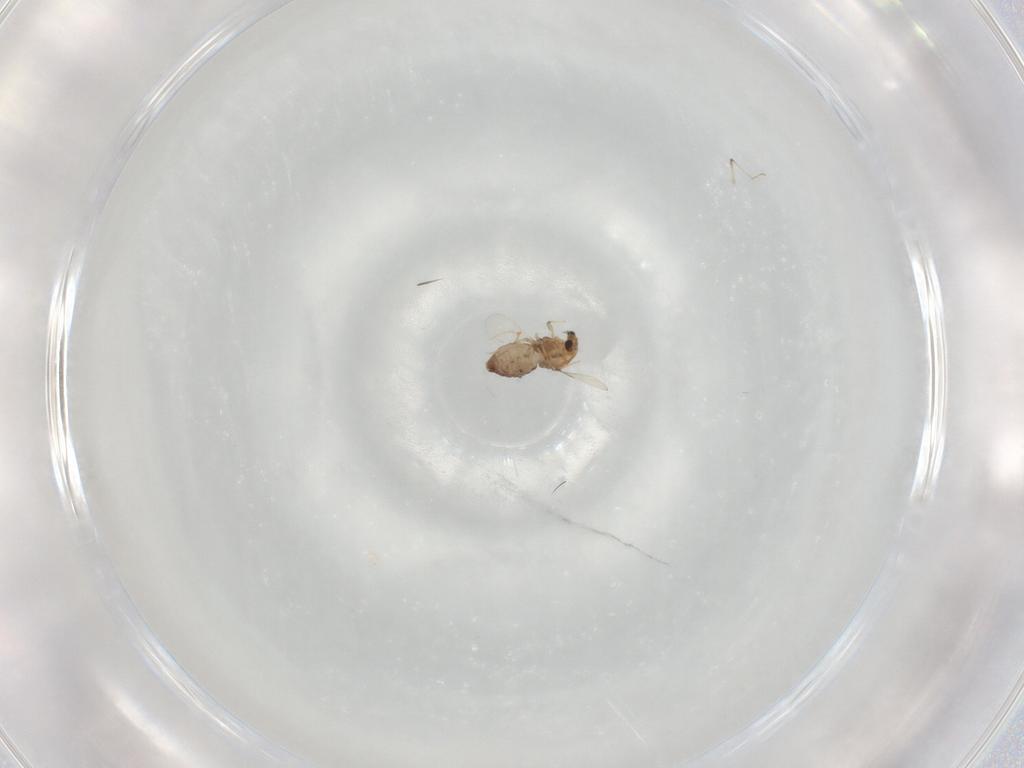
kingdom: Animalia
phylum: Arthropoda
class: Insecta
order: Diptera
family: Chironomidae
